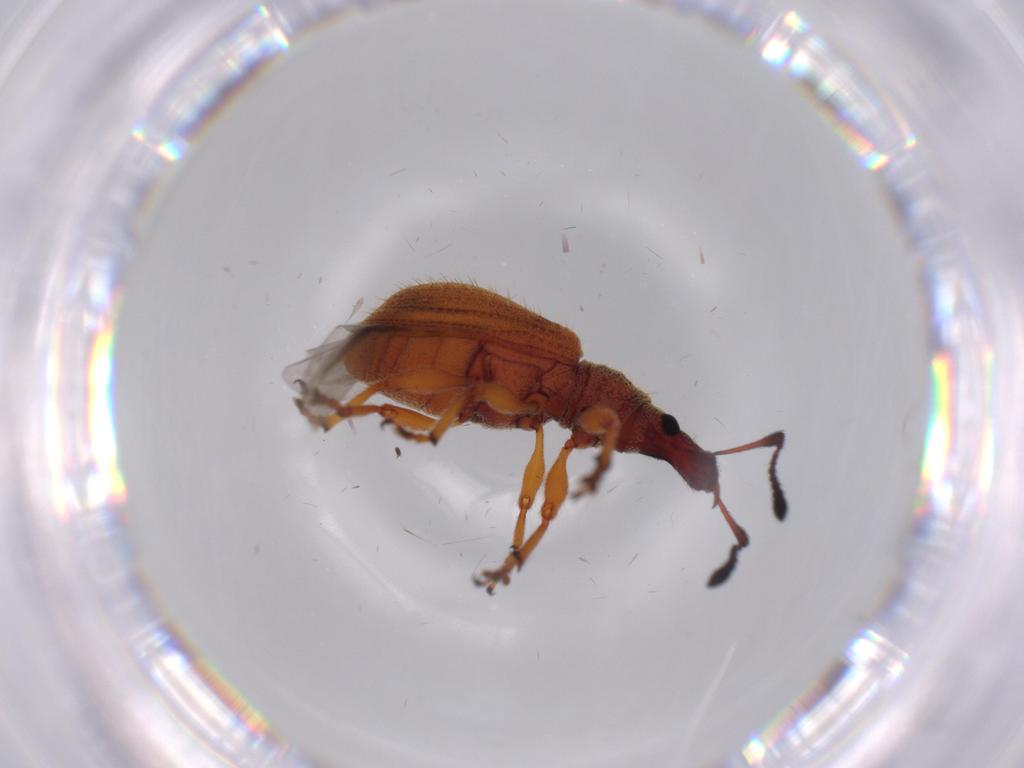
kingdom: Animalia
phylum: Arthropoda
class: Insecta
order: Coleoptera
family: Curculionidae
